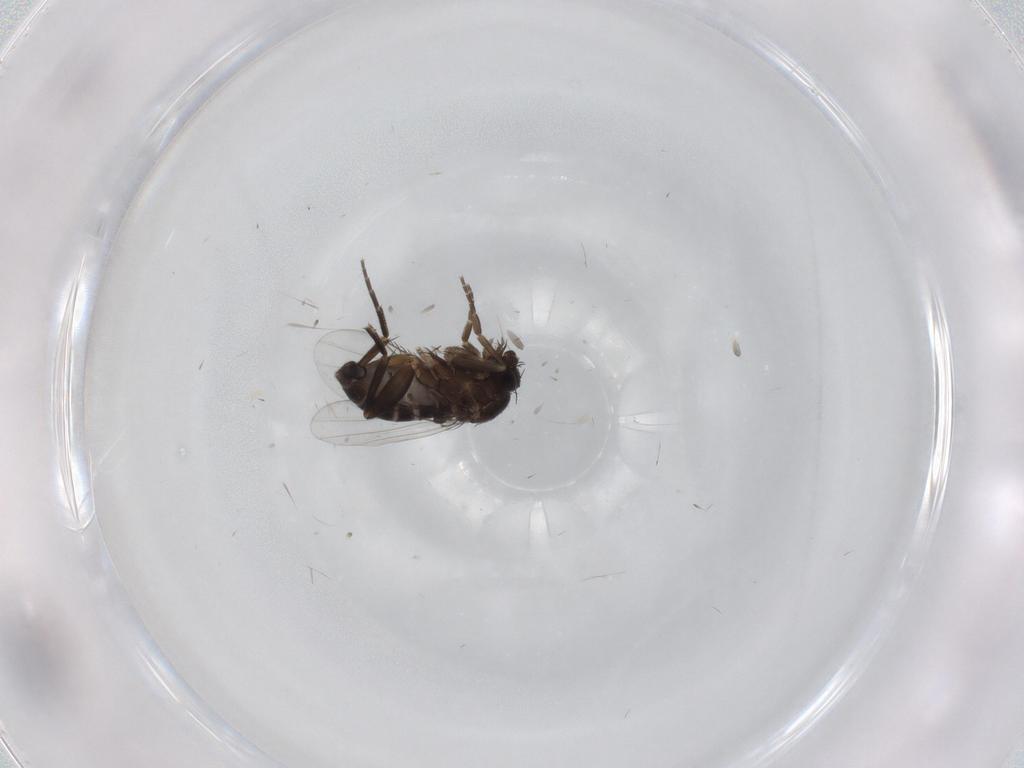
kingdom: Animalia
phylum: Arthropoda
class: Insecta
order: Diptera
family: Phoridae
